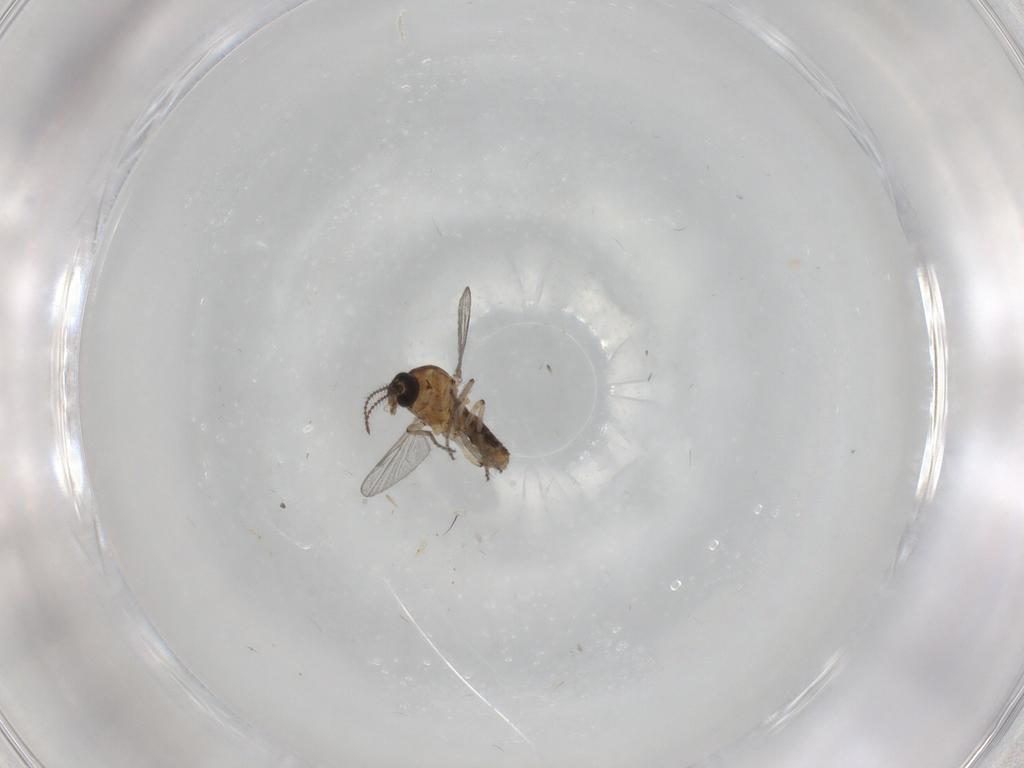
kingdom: Animalia
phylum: Arthropoda
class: Insecta
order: Diptera
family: Ceratopogonidae
